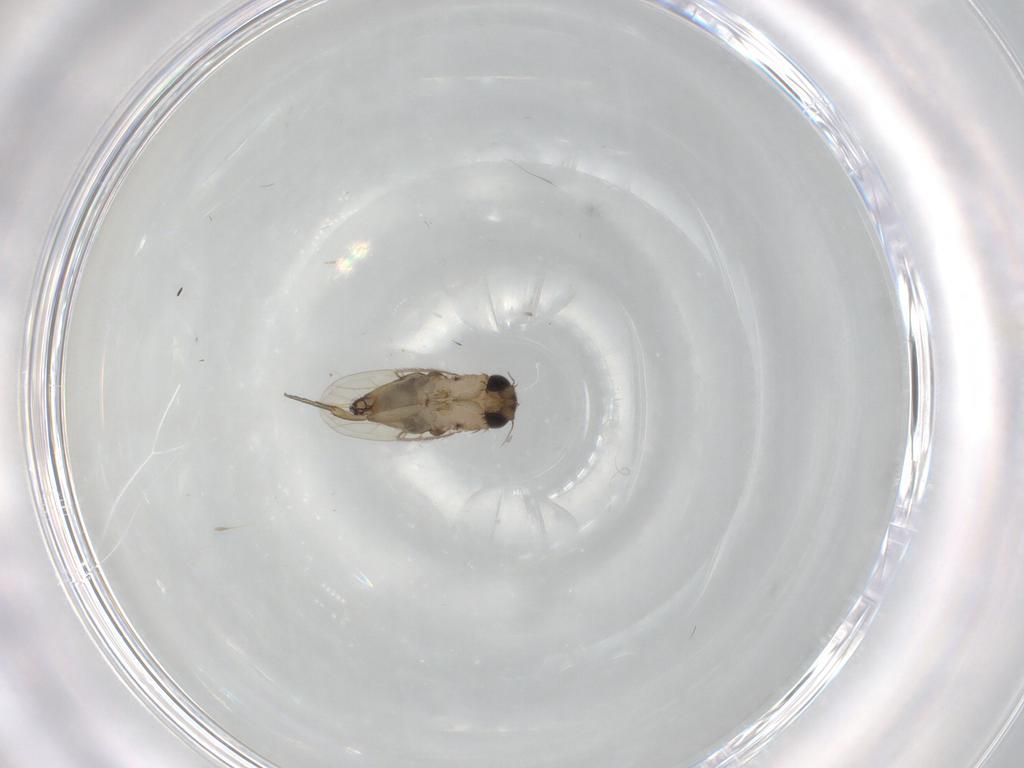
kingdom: Animalia
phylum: Arthropoda
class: Insecta
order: Diptera
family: Phoridae
